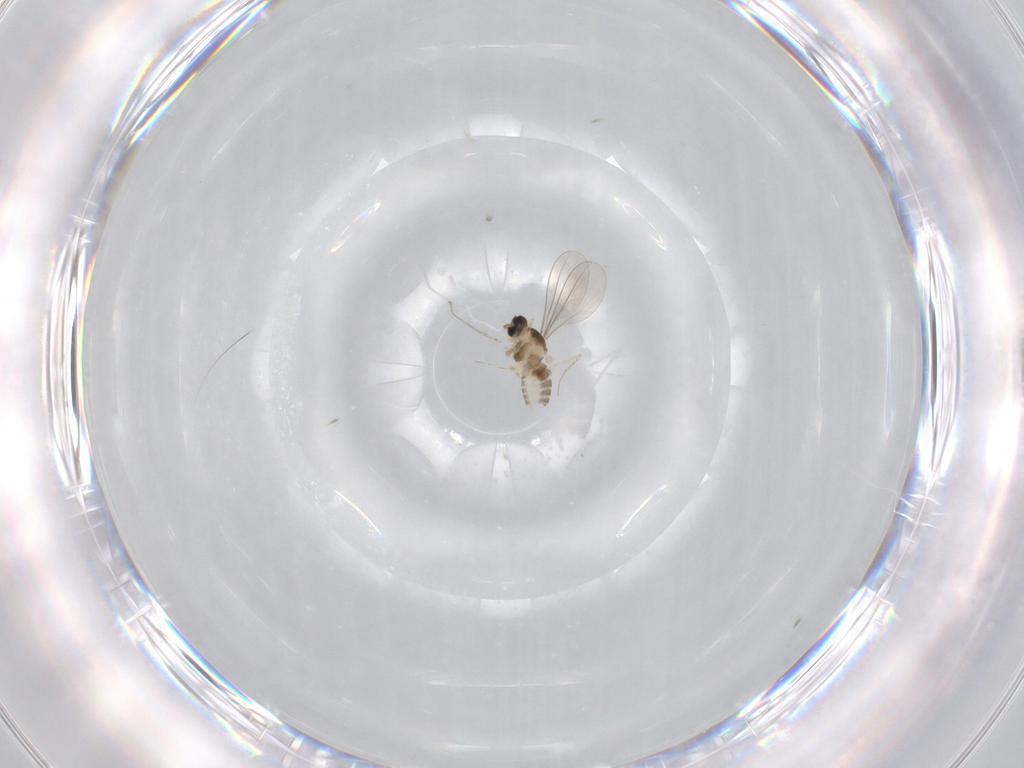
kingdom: Animalia
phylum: Arthropoda
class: Insecta
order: Diptera
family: Cecidomyiidae
